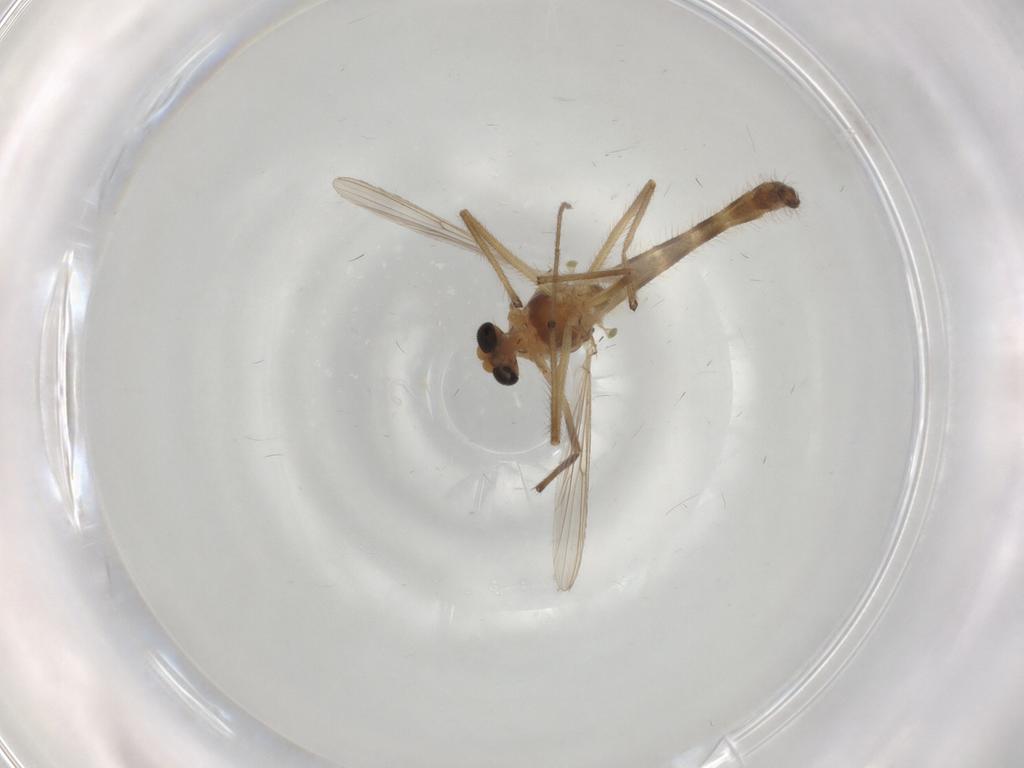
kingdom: Animalia
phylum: Arthropoda
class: Insecta
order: Diptera
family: Chironomidae
